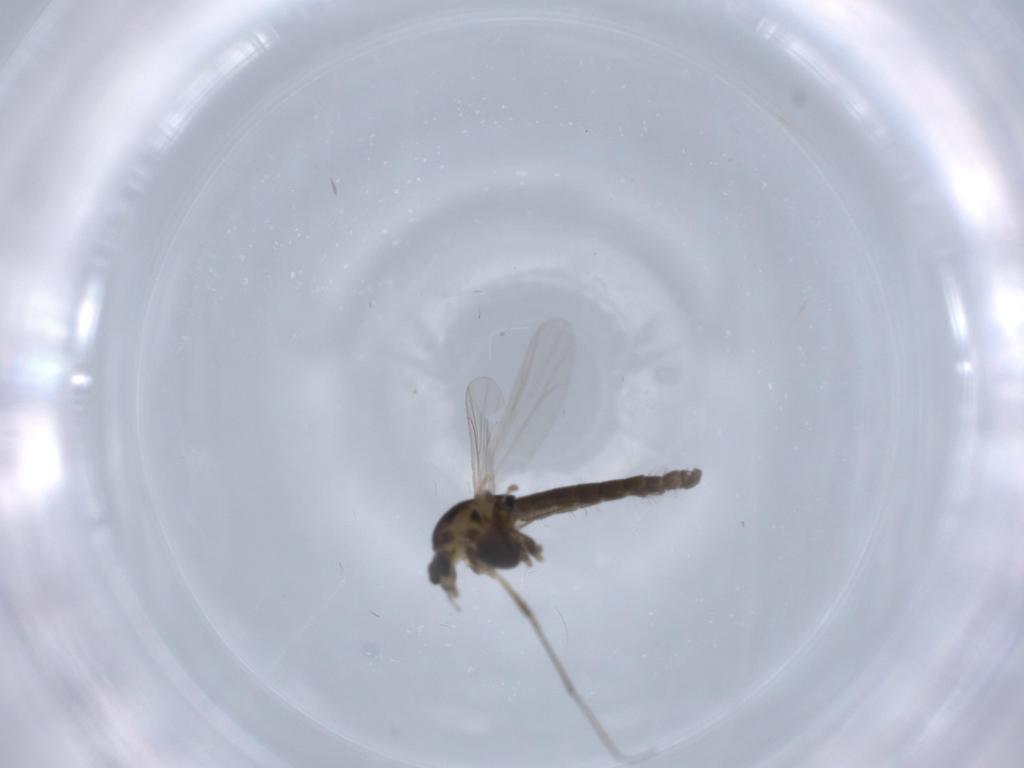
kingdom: Animalia
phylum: Arthropoda
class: Insecta
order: Diptera
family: Chironomidae
